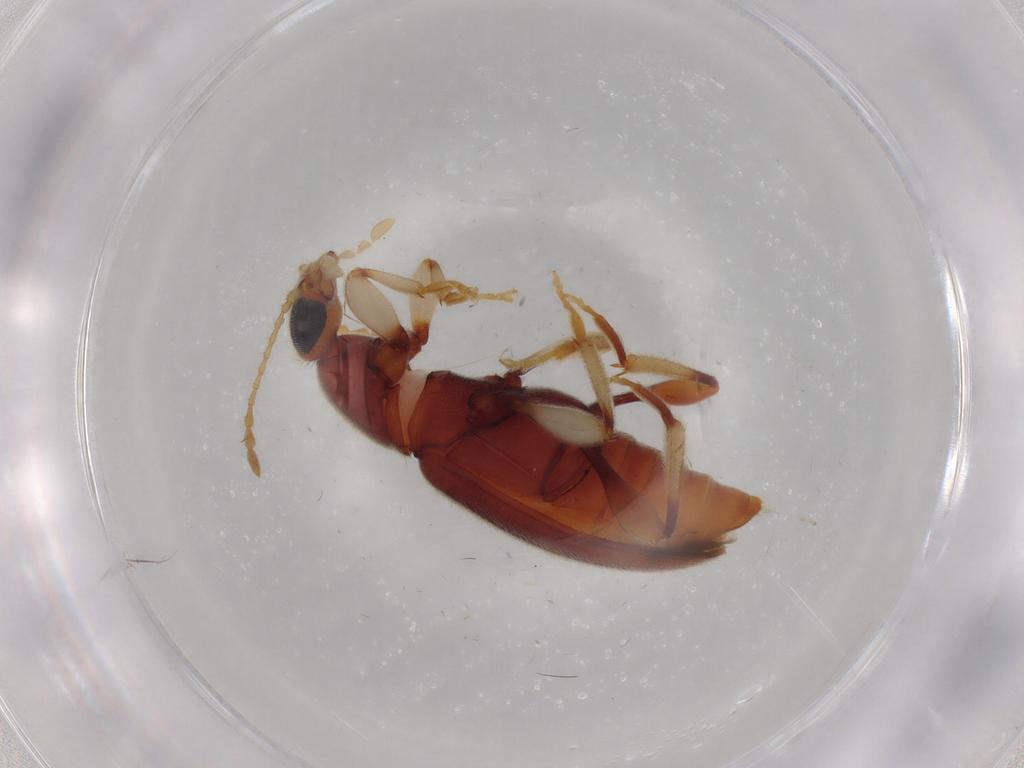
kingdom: Animalia
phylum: Arthropoda
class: Insecta
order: Coleoptera
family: Anthicidae
